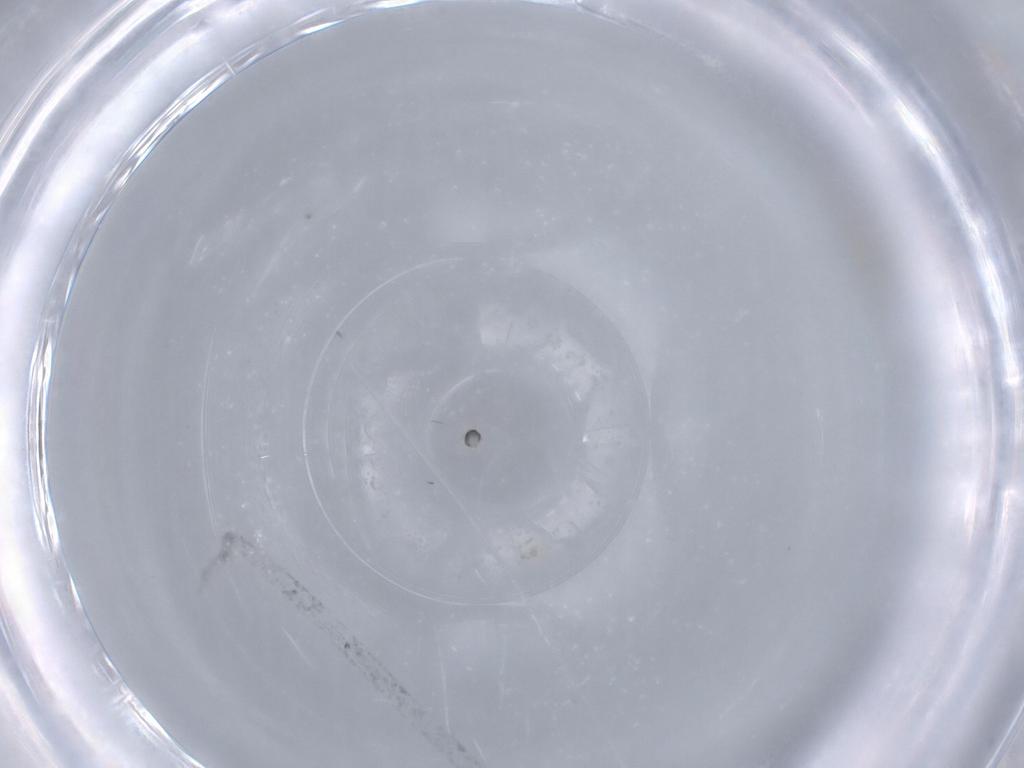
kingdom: Animalia
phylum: Arthropoda
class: Insecta
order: Diptera
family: Cecidomyiidae
